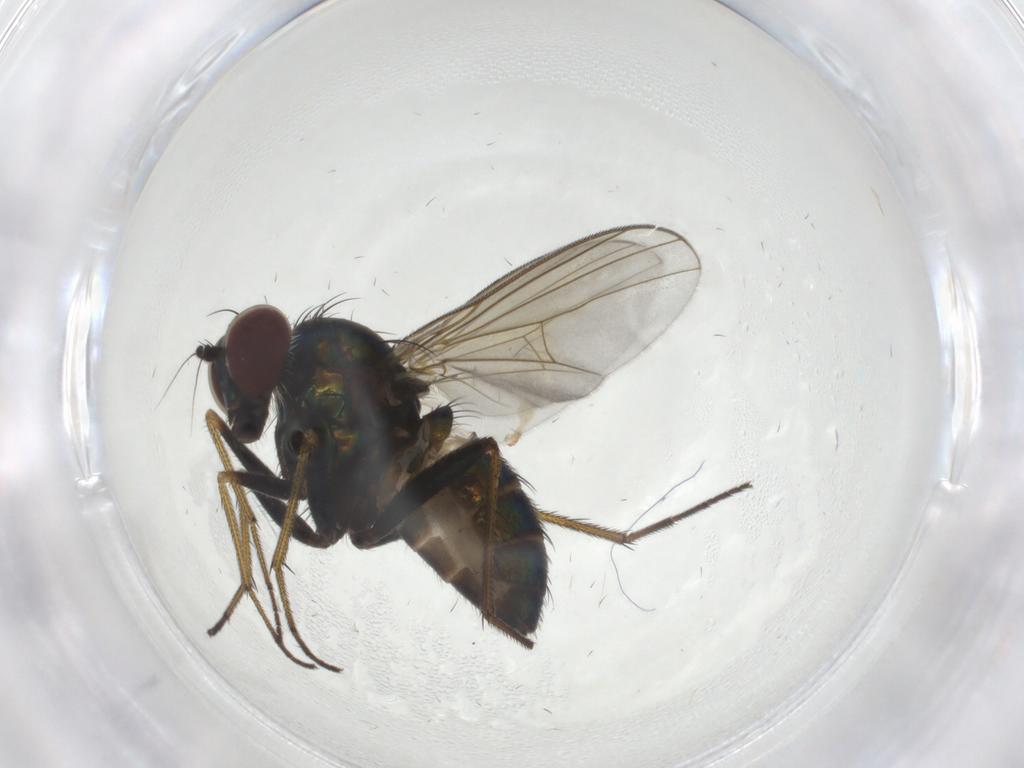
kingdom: Animalia
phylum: Arthropoda
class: Insecta
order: Diptera
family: Dolichopodidae
